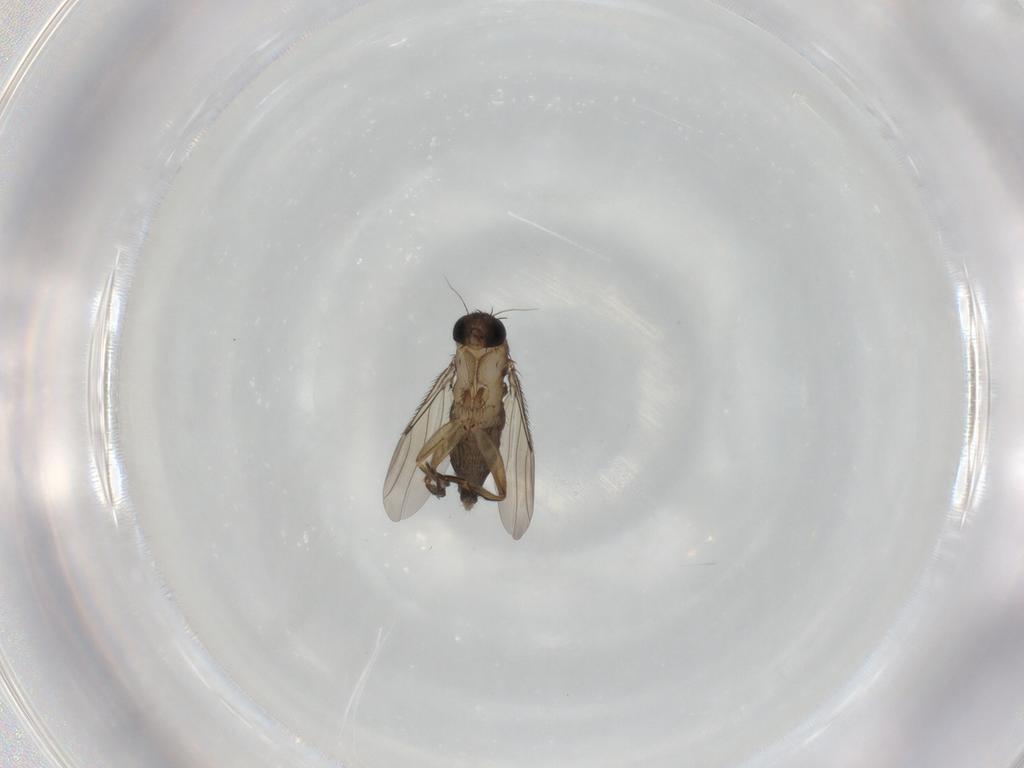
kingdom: Animalia
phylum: Arthropoda
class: Insecta
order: Diptera
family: Phoridae
